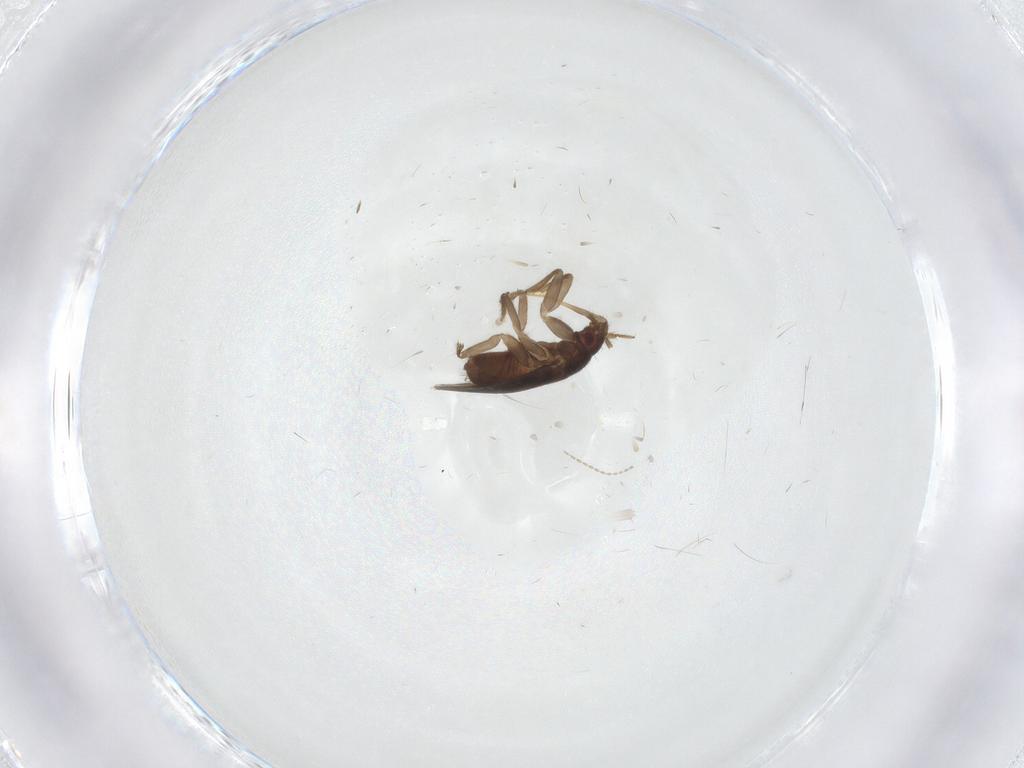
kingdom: Animalia
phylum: Arthropoda
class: Insecta
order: Hemiptera
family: Ceratocombidae
